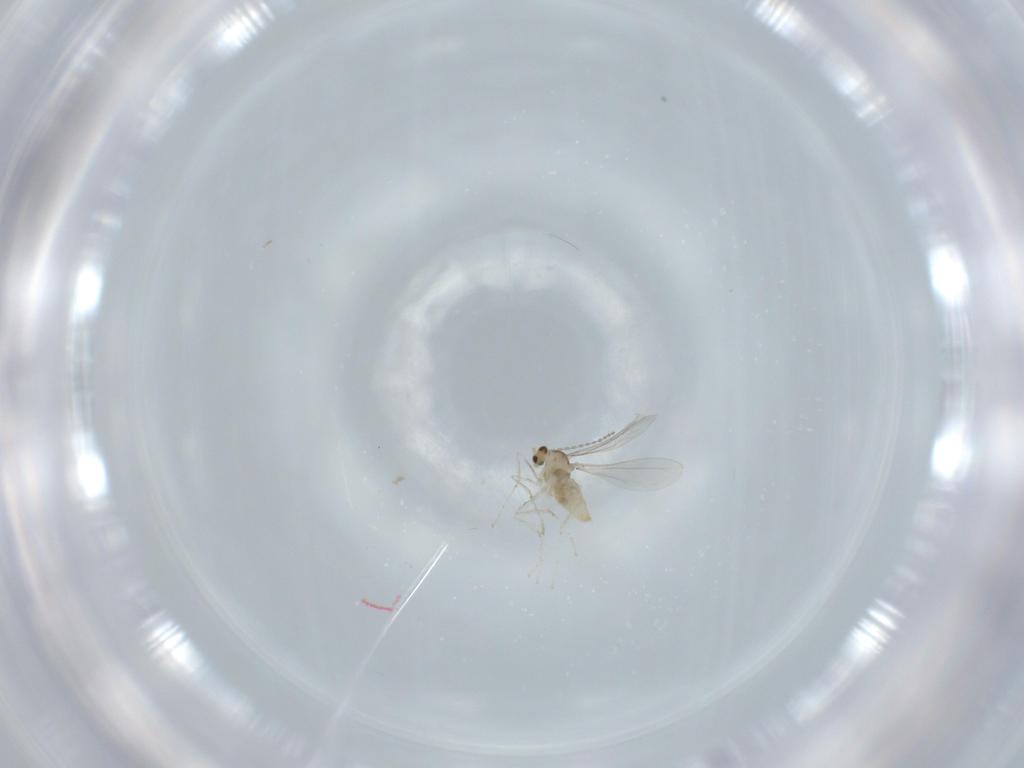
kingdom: Animalia
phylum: Arthropoda
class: Insecta
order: Diptera
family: Cecidomyiidae
